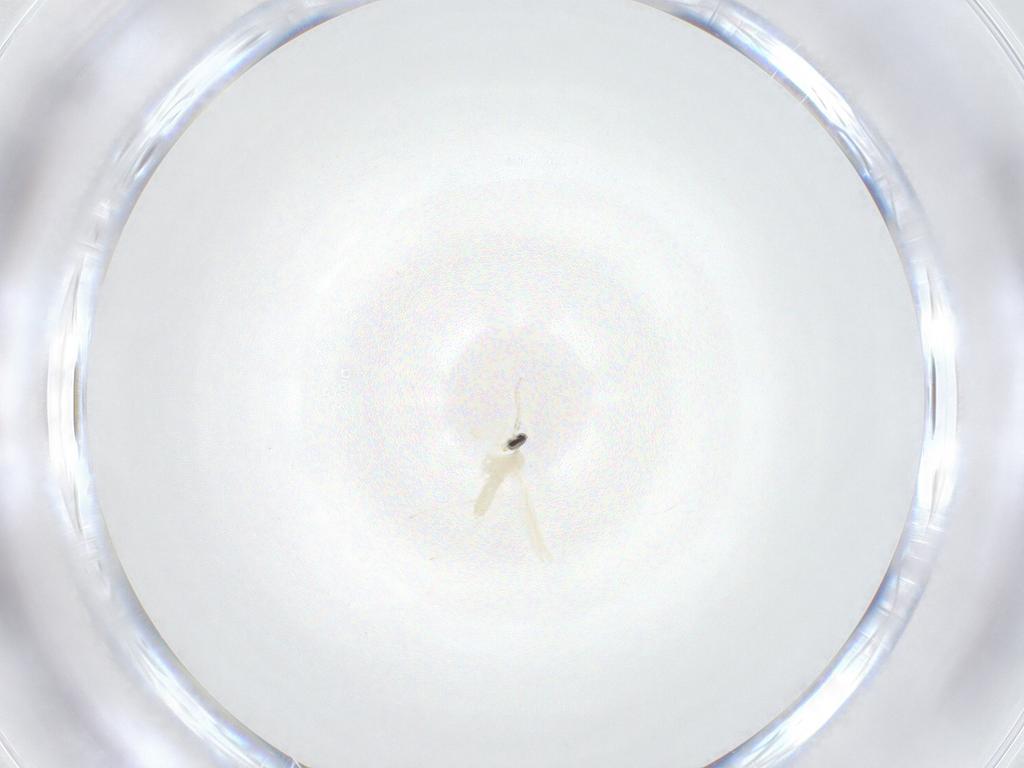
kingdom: Animalia
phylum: Arthropoda
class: Insecta
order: Diptera
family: Cecidomyiidae
